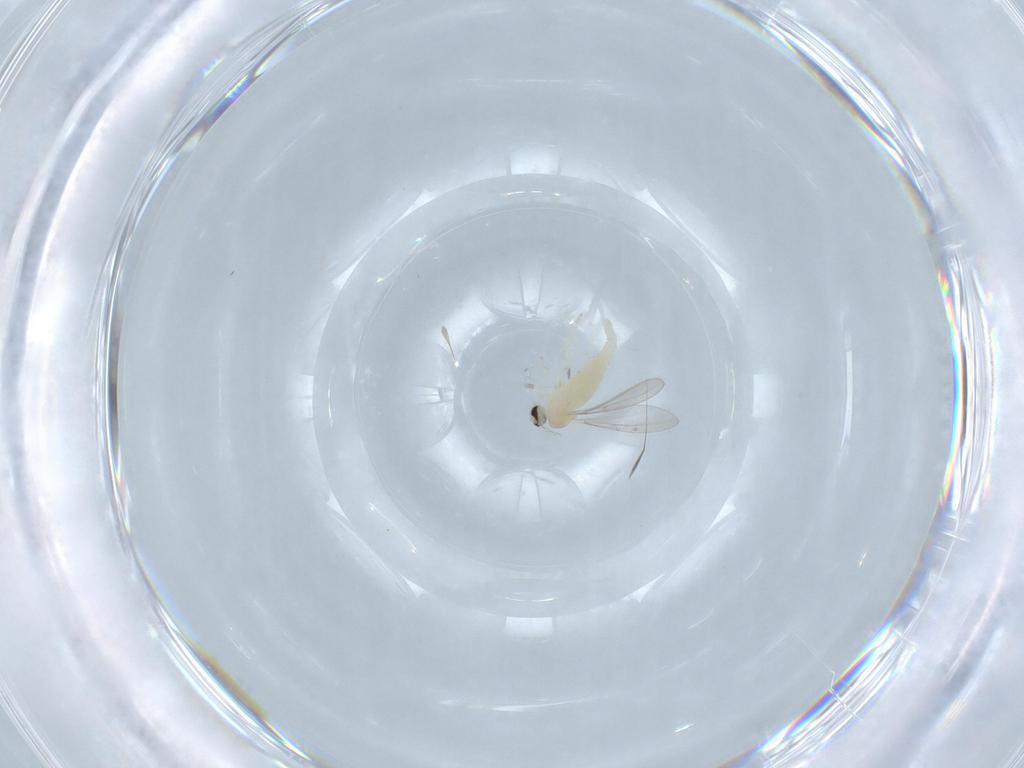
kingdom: Animalia
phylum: Arthropoda
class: Insecta
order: Diptera
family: Cecidomyiidae
